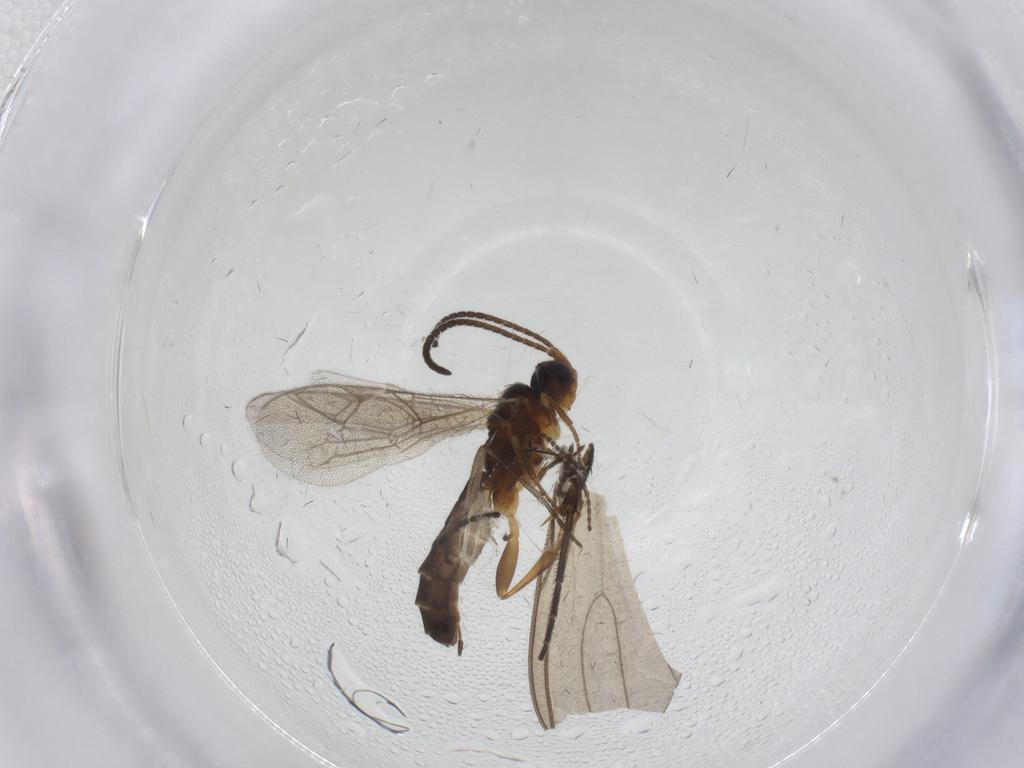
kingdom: Animalia
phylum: Arthropoda
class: Insecta
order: Hymenoptera
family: Ichneumonidae
